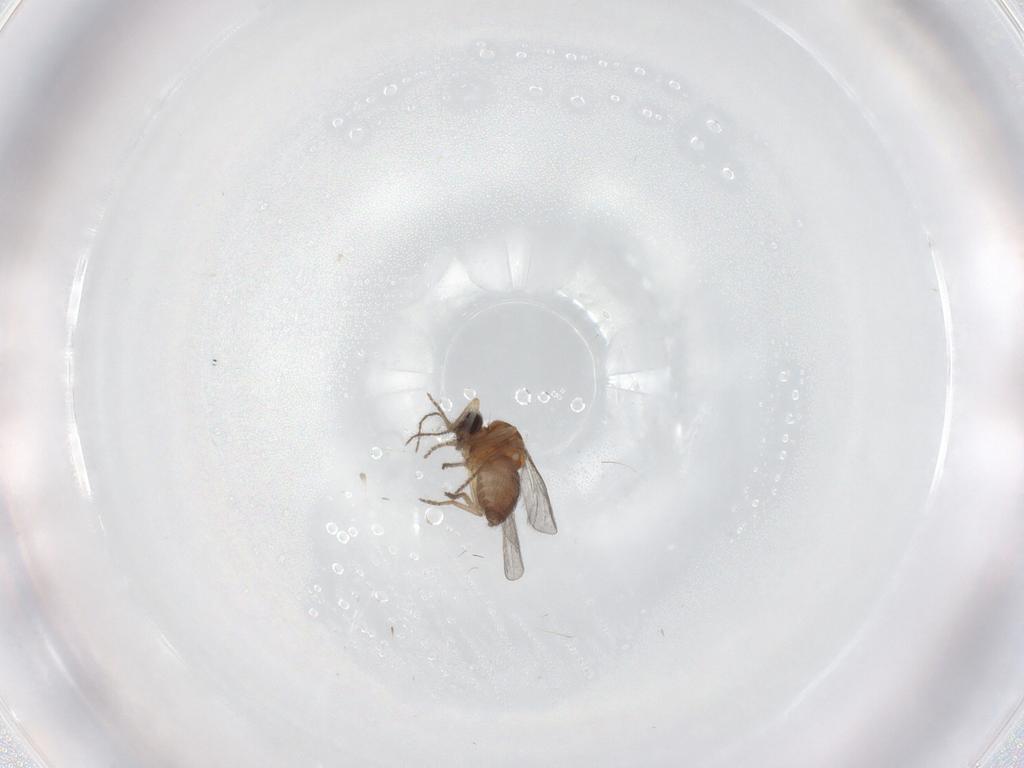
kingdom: Animalia
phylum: Arthropoda
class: Insecta
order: Diptera
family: Ceratopogonidae
